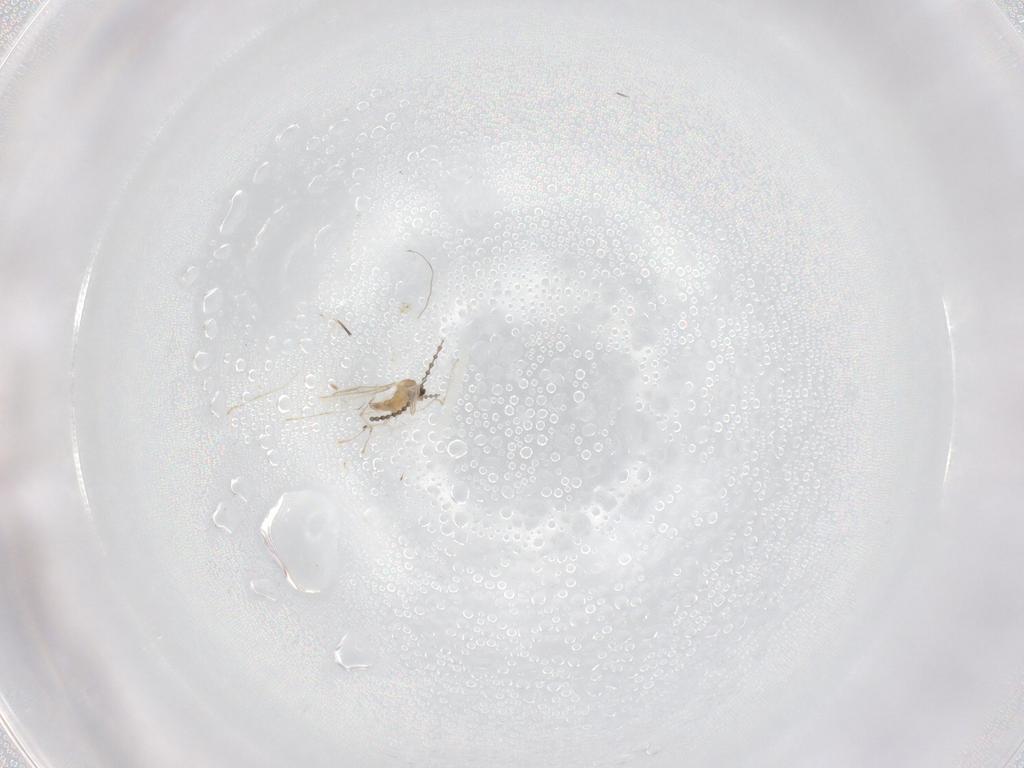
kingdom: Animalia
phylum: Arthropoda
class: Insecta
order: Diptera
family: Cecidomyiidae
